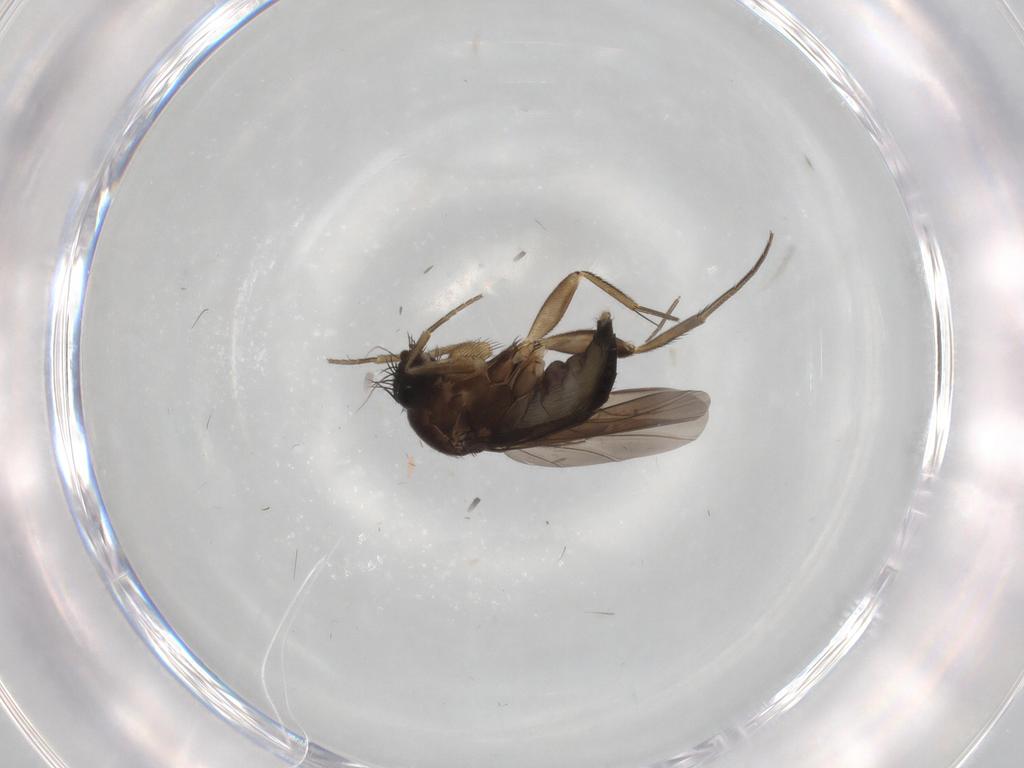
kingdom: Animalia
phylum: Arthropoda
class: Insecta
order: Diptera
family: Phoridae
